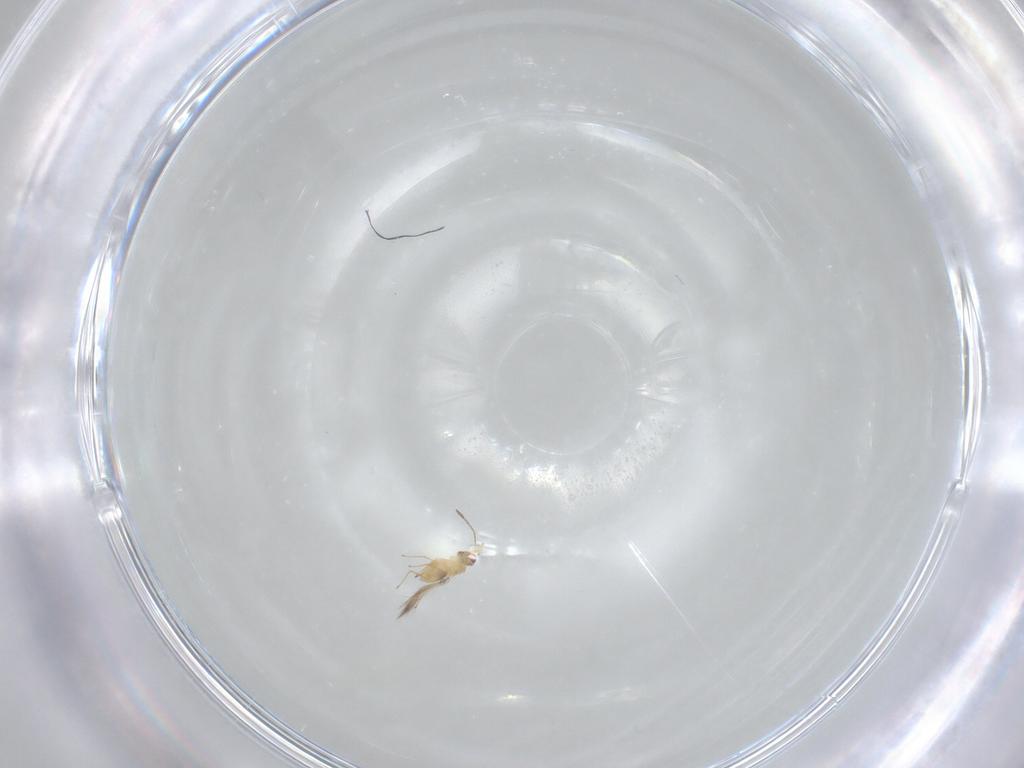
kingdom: Animalia
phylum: Arthropoda
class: Insecta
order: Hymenoptera
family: Mymaridae
